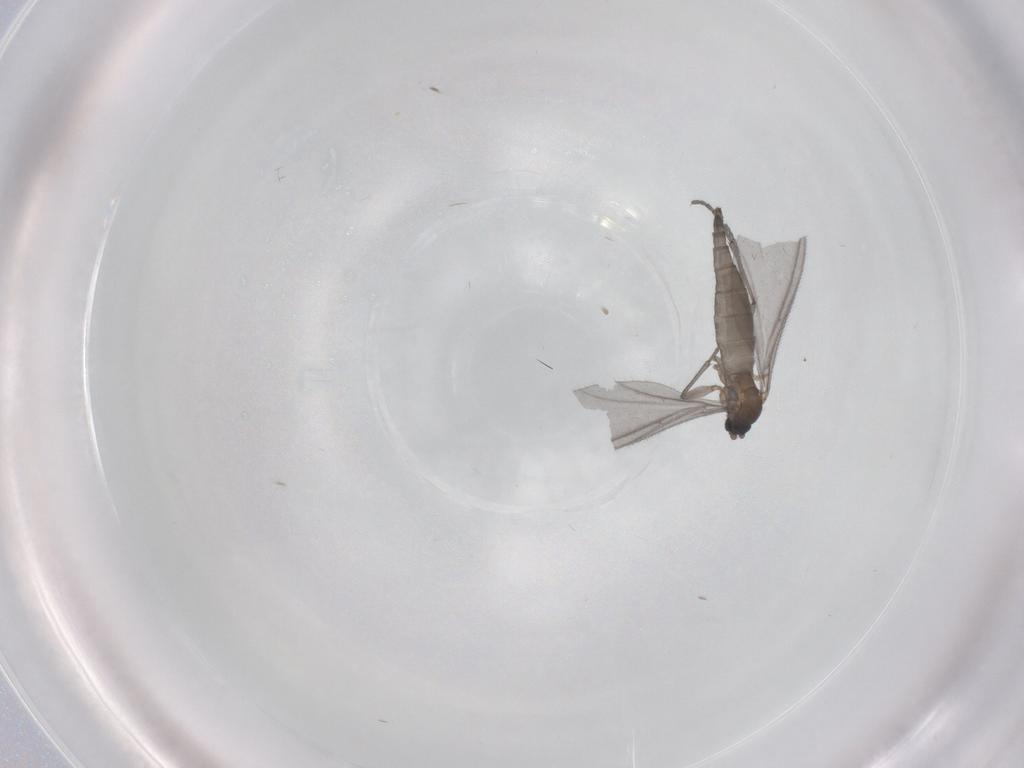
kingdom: Animalia
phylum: Arthropoda
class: Insecta
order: Diptera
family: Sciaridae
